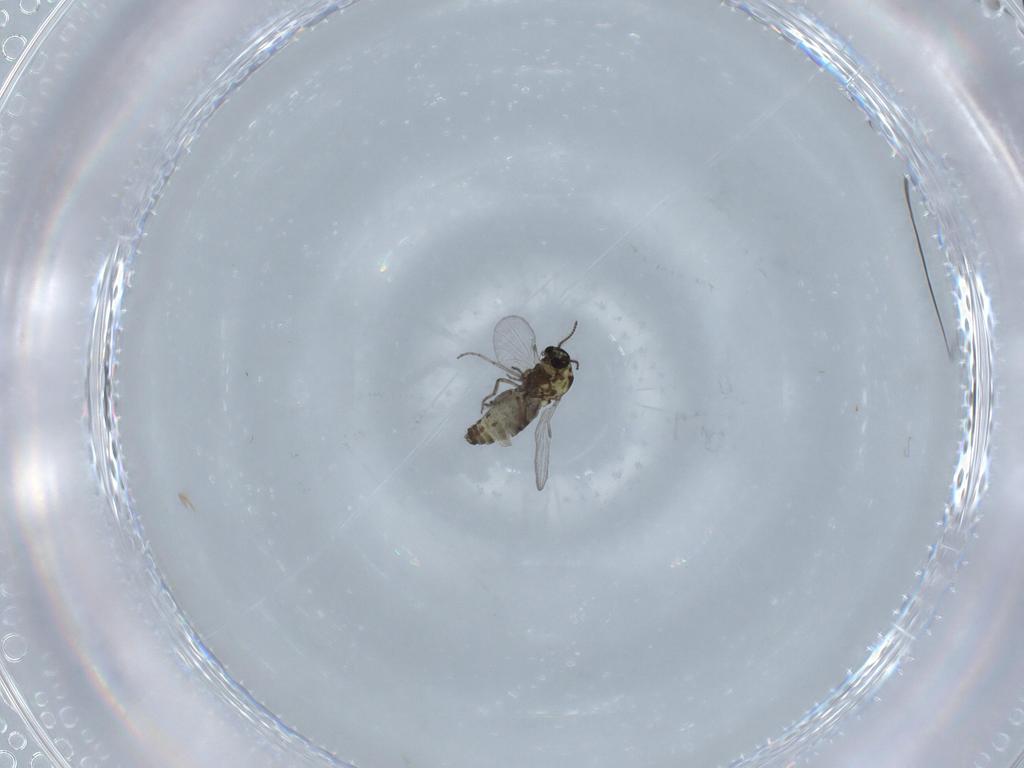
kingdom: Animalia
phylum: Arthropoda
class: Insecta
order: Diptera
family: Ceratopogonidae
